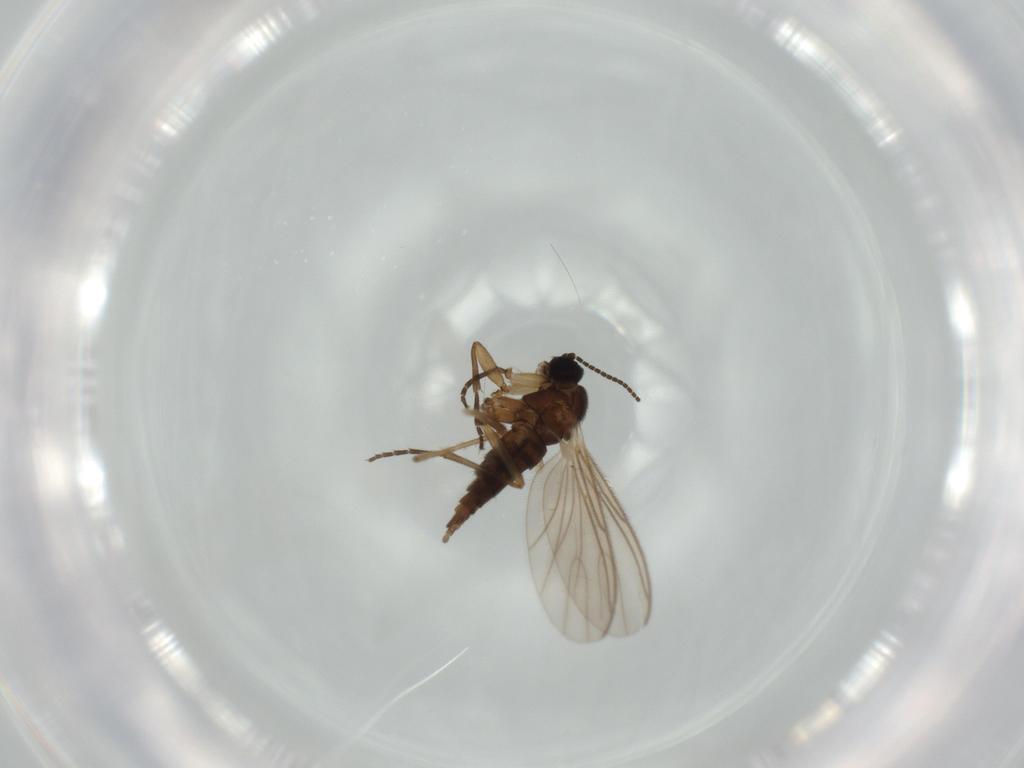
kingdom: Animalia
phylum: Arthropoda
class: Insecta
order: Diptera
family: Sciaridae
